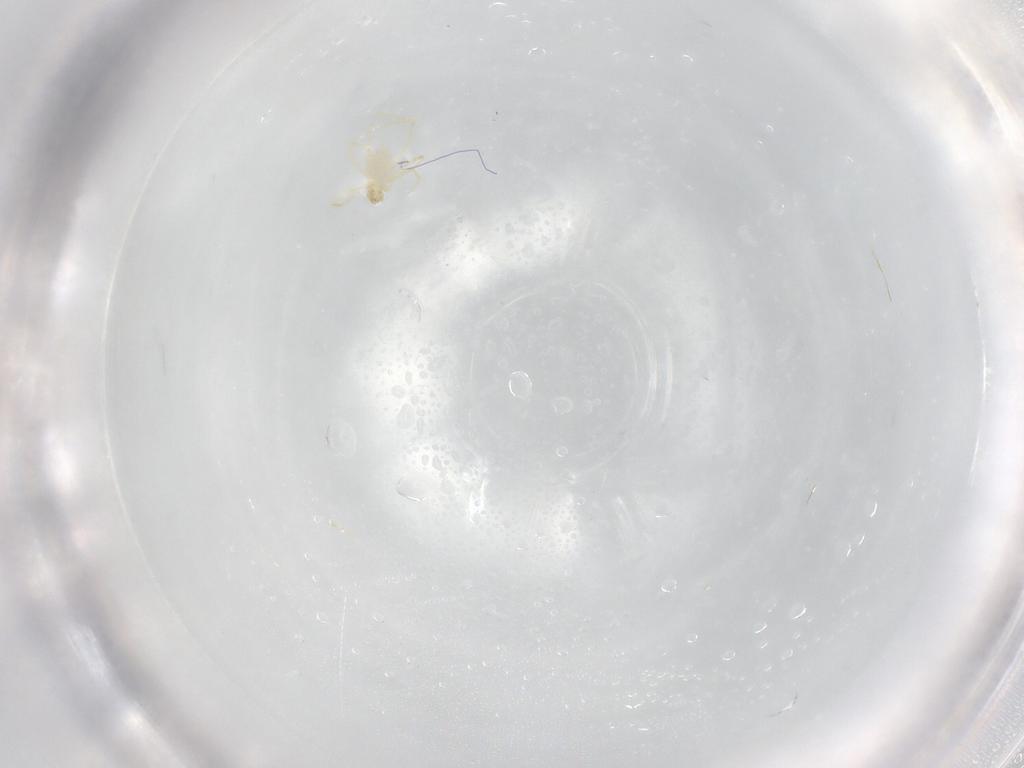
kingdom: Animalia
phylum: Arthropoda
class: Arachnida
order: Trombidiformes
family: Erythraeidae
